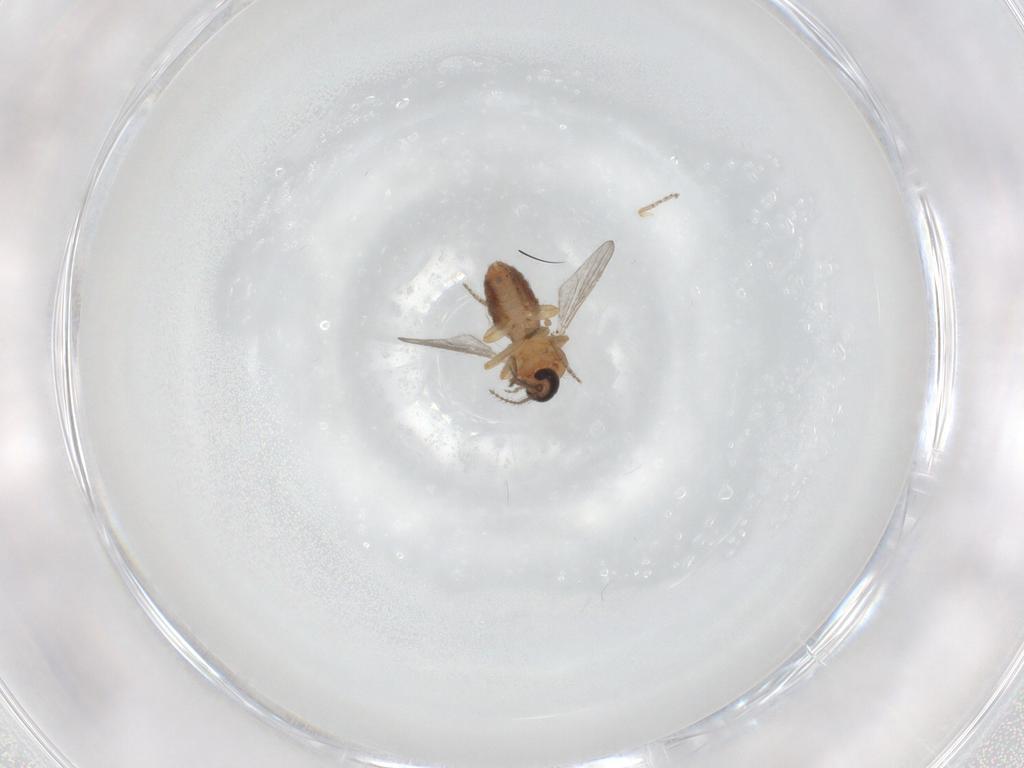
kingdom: Animalia
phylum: Arthropoda
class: Insecta
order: Diptera
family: Ceratopogonidae
